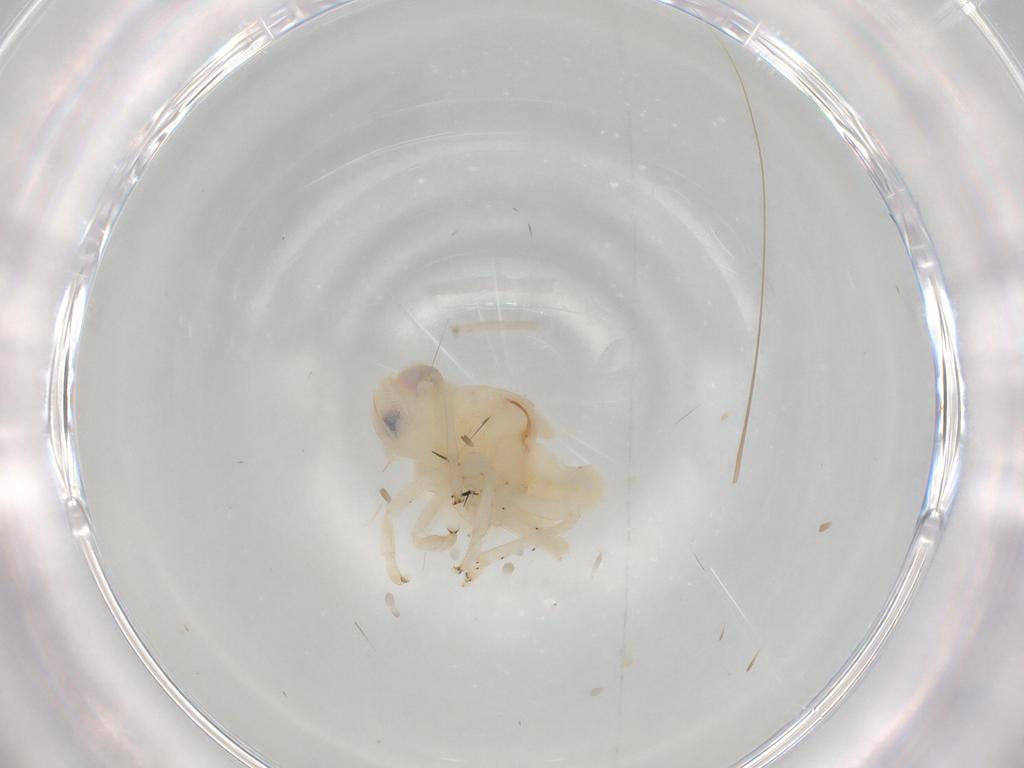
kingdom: Animalia
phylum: Arthropoda
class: Insecta
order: Hemiptera
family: Nogodinidae
